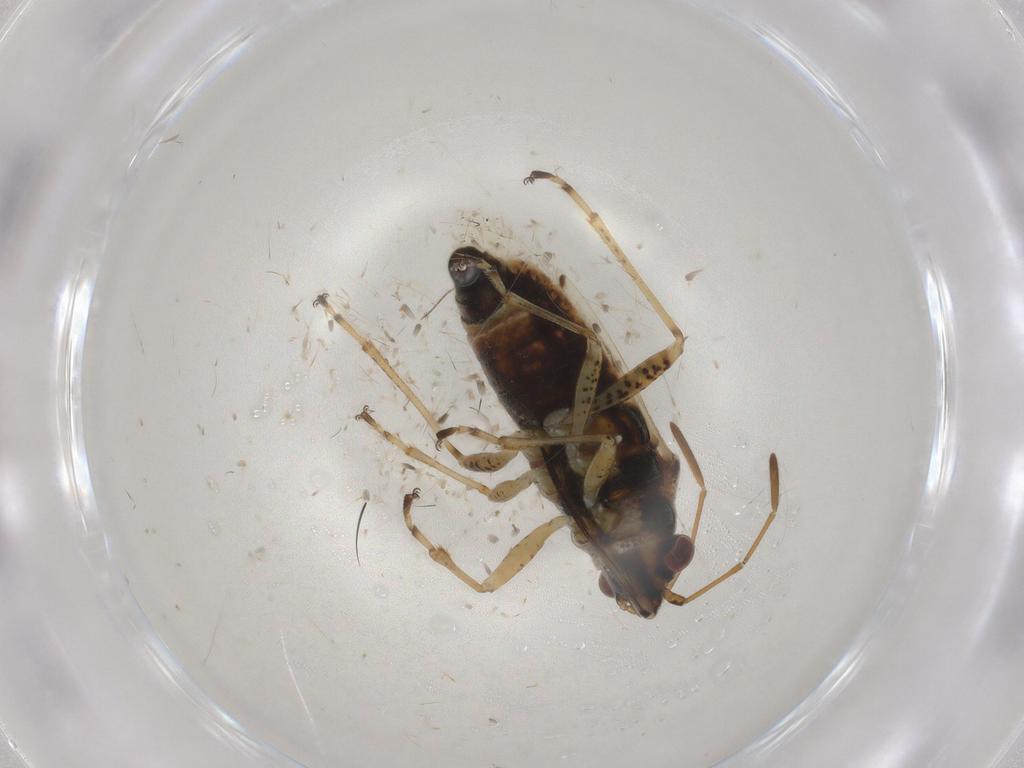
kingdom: Animalia
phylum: Arthropoda
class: Insecta
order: Hemiptera
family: Lygaeidae
